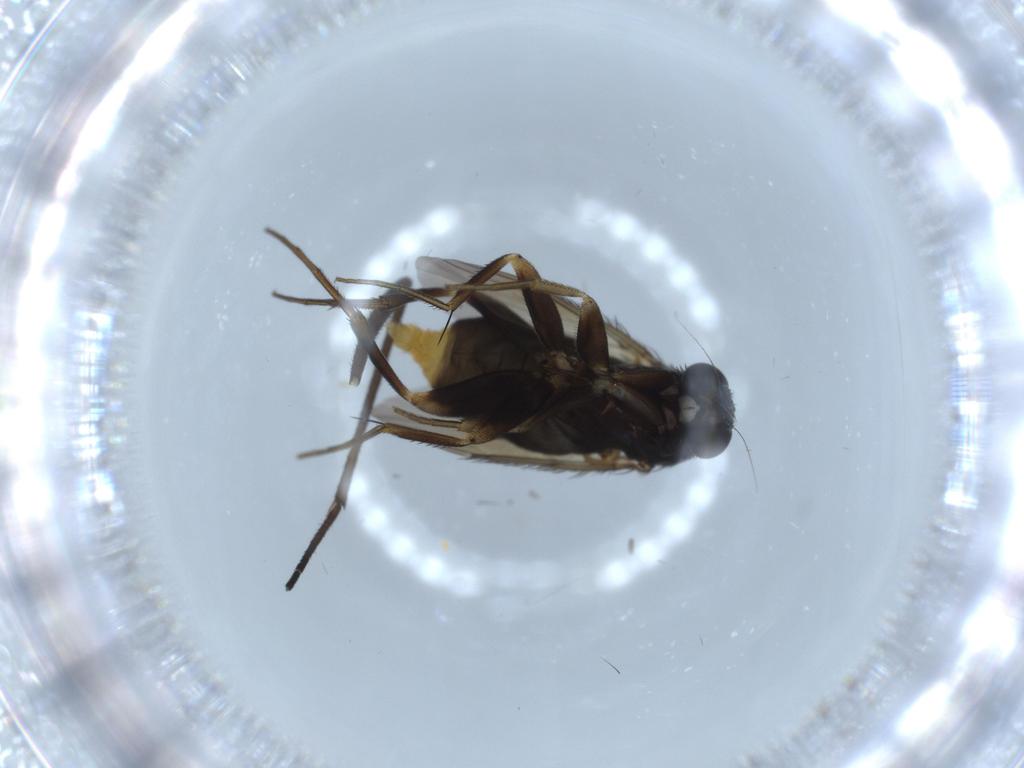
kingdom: Animalia
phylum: Arthropoda
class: Insecta
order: Diptera
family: Phoridae
